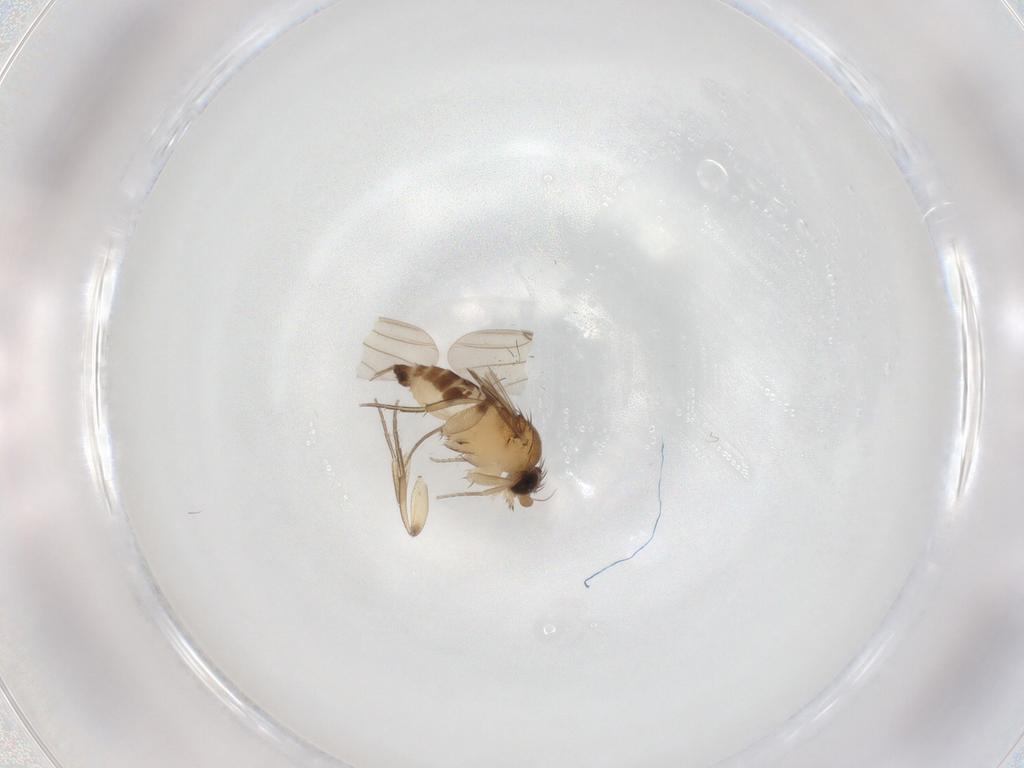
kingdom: Animalia
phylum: Arthropoda
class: Insecta
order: Diptera
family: Phoridae
